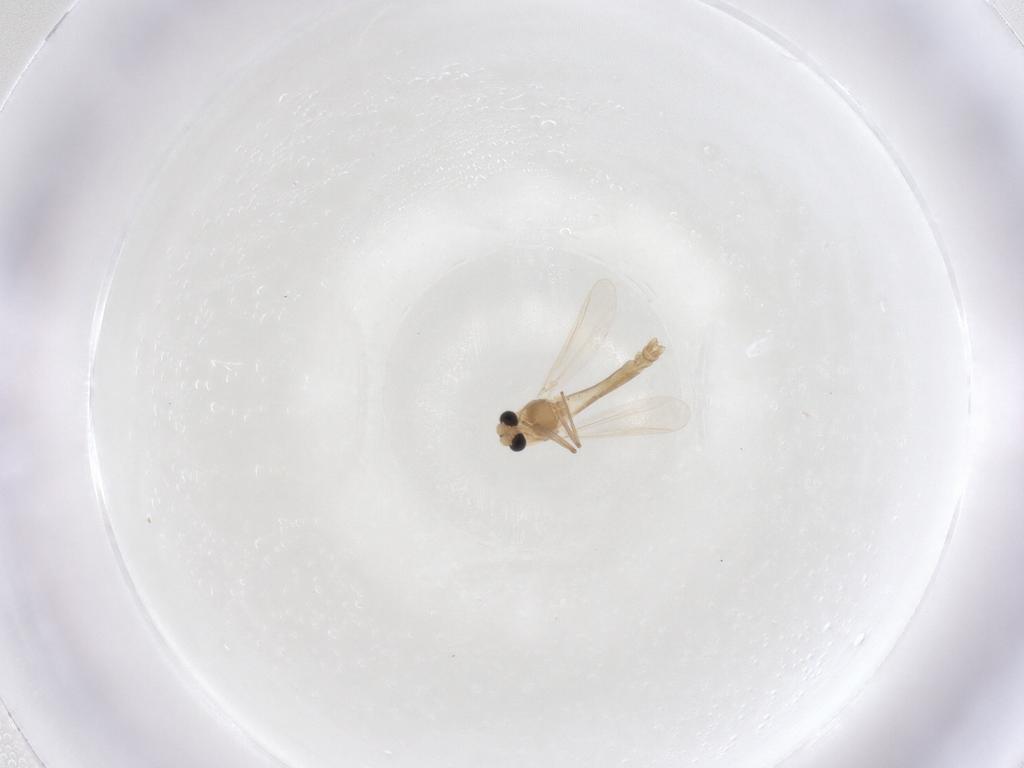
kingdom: Animalia
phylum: Arthropoda
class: Insecta
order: Diptera
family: Chironomidae
